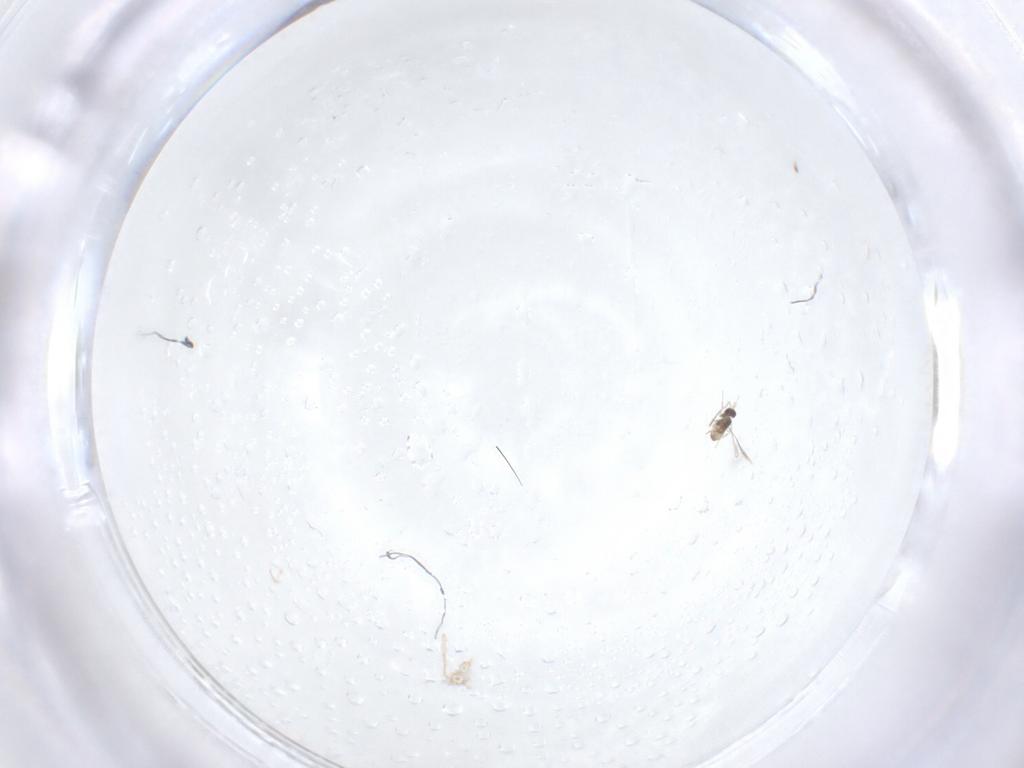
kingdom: Animalia
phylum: Arthropoda
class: Insecta
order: Hymenoptera
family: Mymaridae
